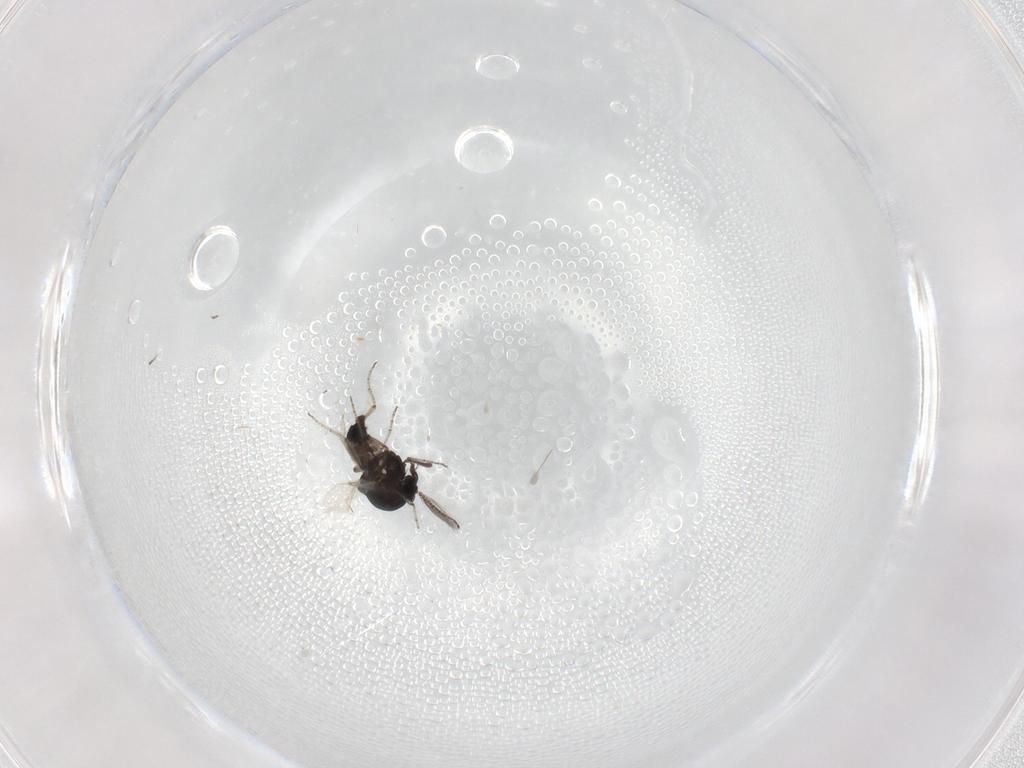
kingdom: Animalia
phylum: Arthropoda
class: Insecta
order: Diptera
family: Ceratopogonidae
